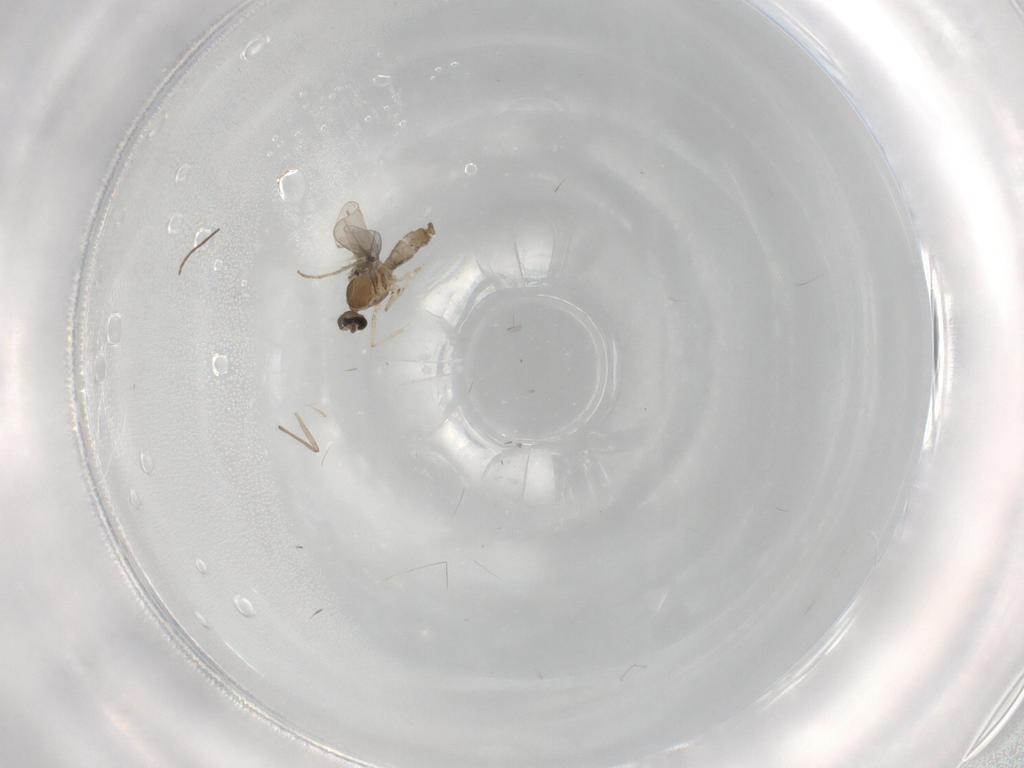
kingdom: Animalia
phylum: Arthropoda
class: Insecta
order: Diptera
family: Cecidomyiidae
